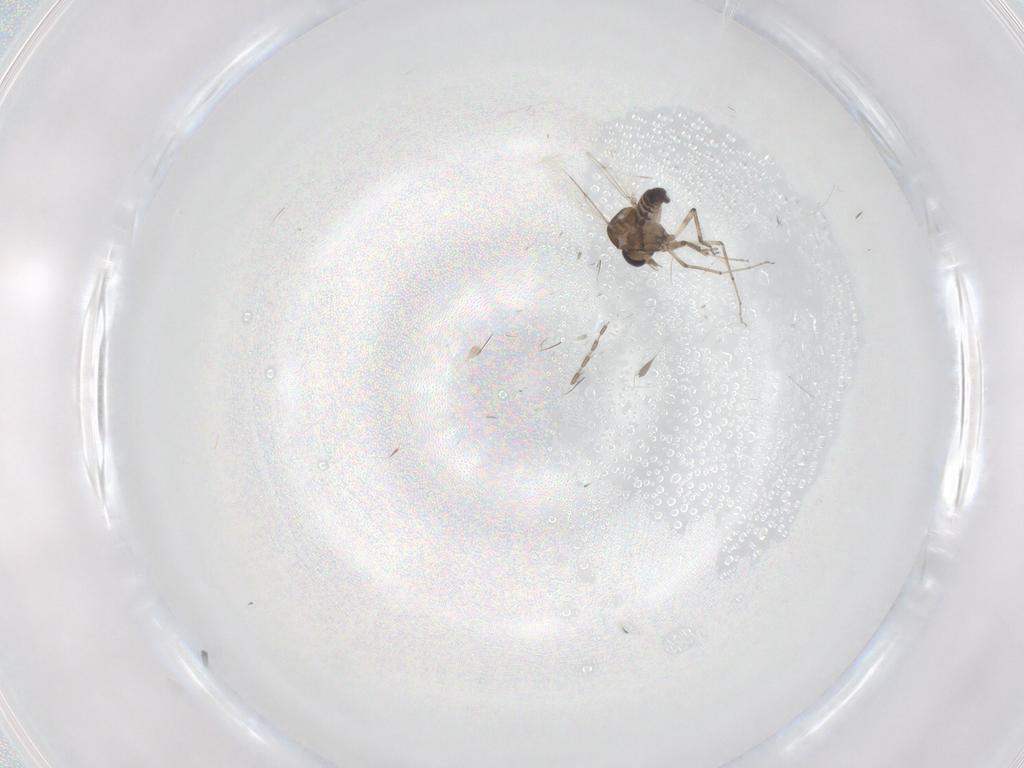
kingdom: Animalia
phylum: Arthropoda
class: Insecta
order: Diptera
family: Ceratopogonidae
